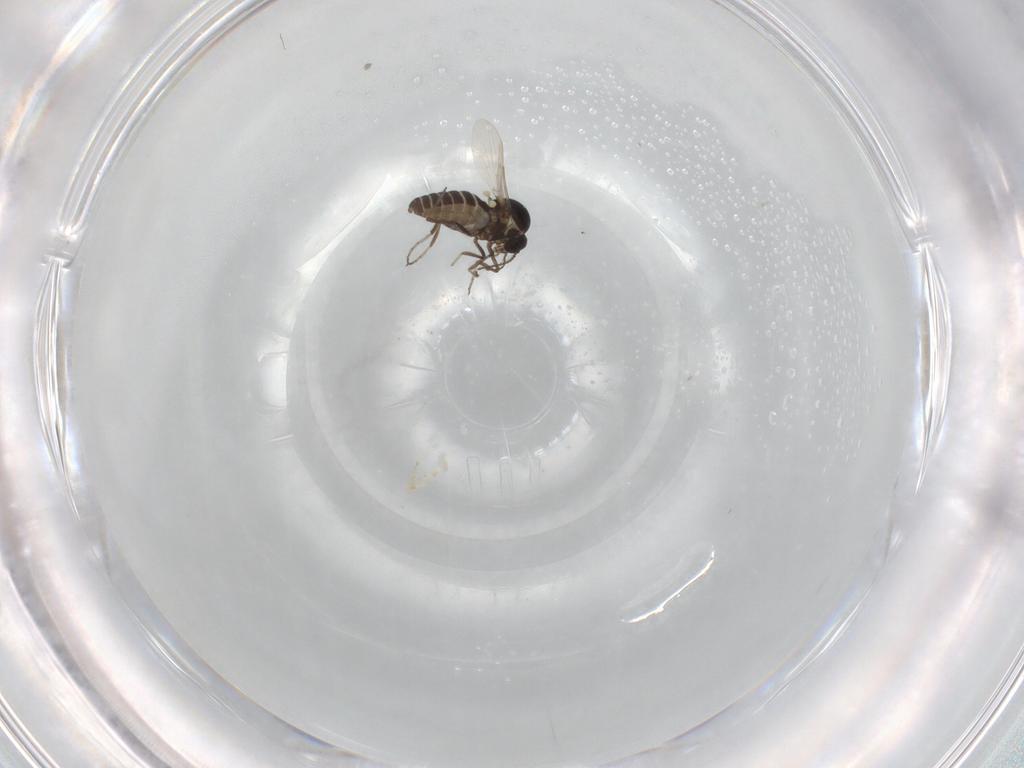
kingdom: Animalia
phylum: Arthropoda
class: Insecta
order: Diptera
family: Ceratopogonidae
